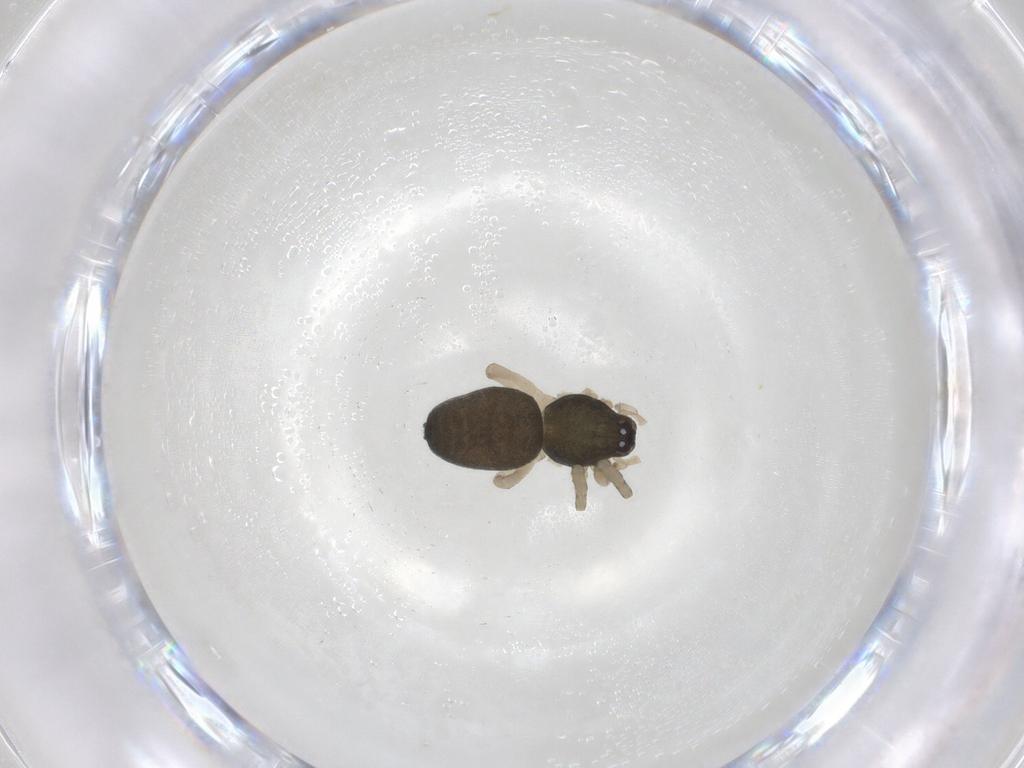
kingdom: Animalia
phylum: Arthropoda
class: Arachnida
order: Araneae
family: Trachelidae
